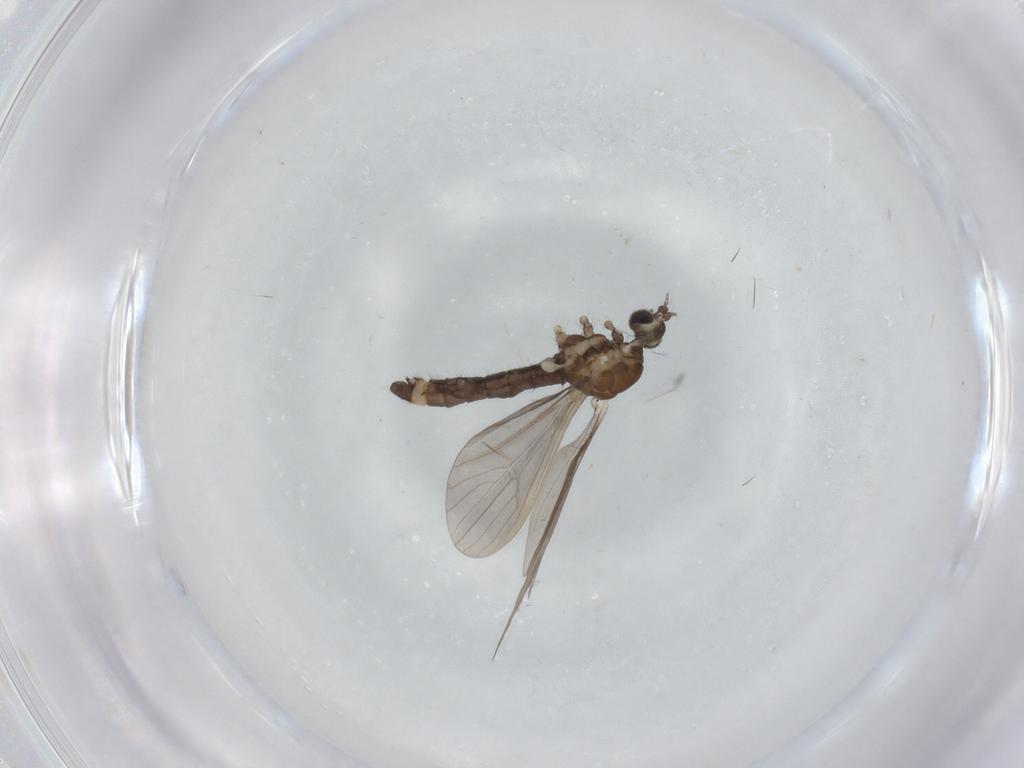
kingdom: Animalia
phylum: Arthropoda
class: Insecta
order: Diptera
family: Limoniidae
